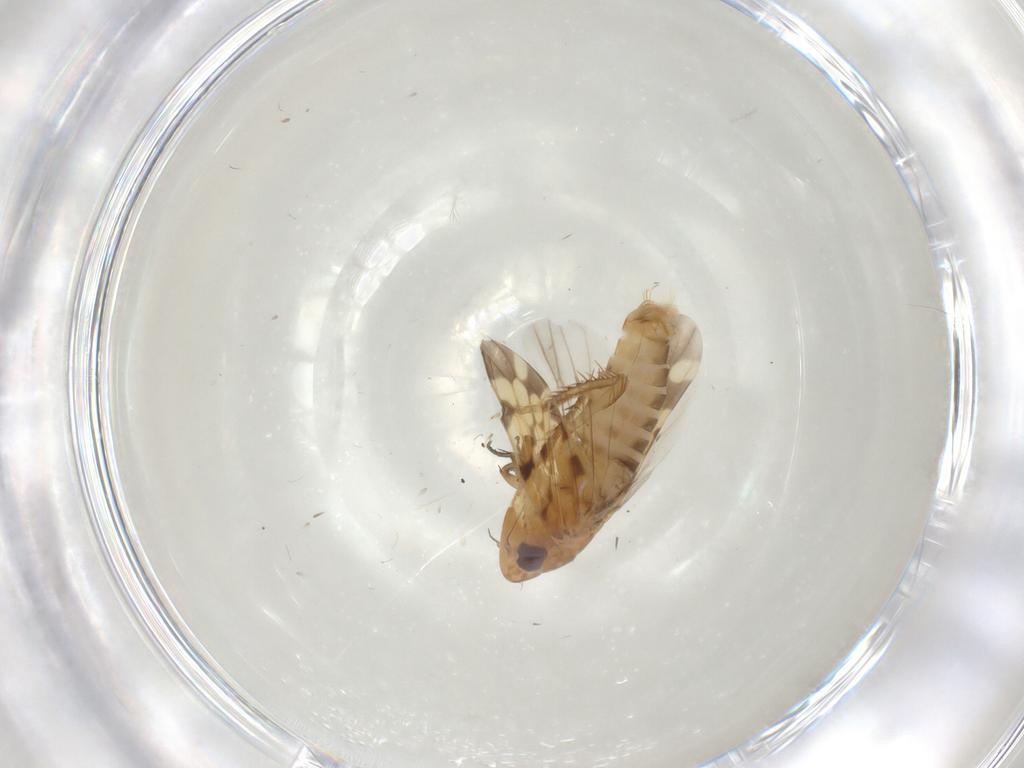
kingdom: Animalia
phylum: Arthropoda
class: Insecta
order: Hemiptera
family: Cicadellidae
